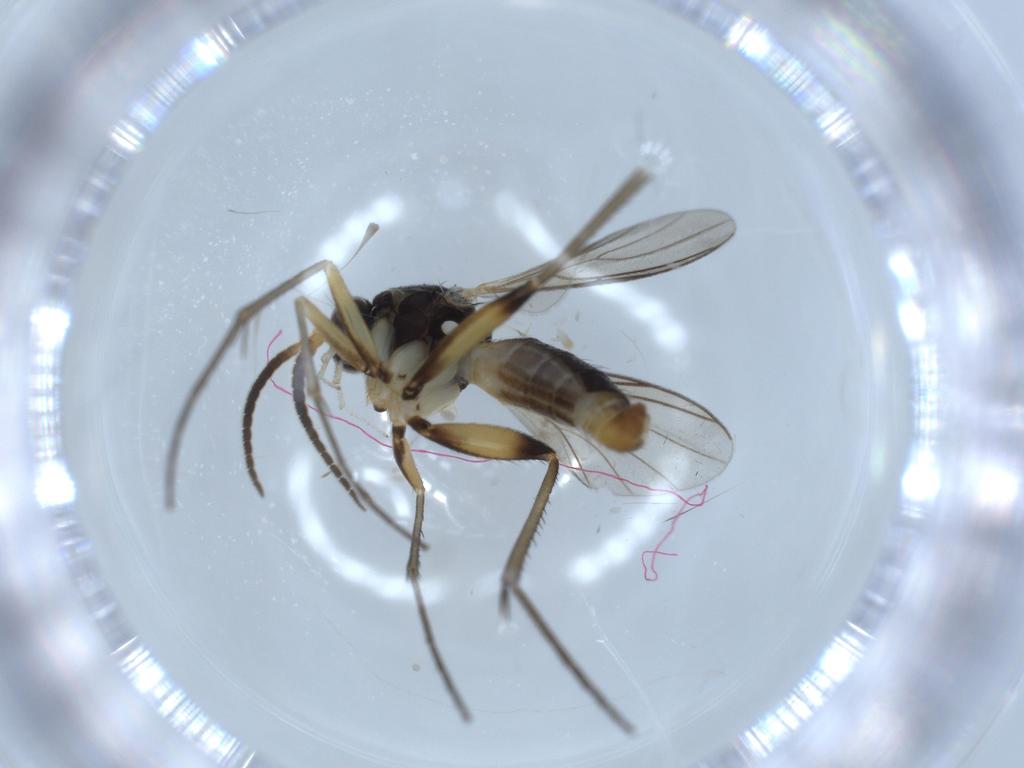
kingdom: Animalia
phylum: Arthropoda
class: Insecta
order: Diptera
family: Sciaridae
